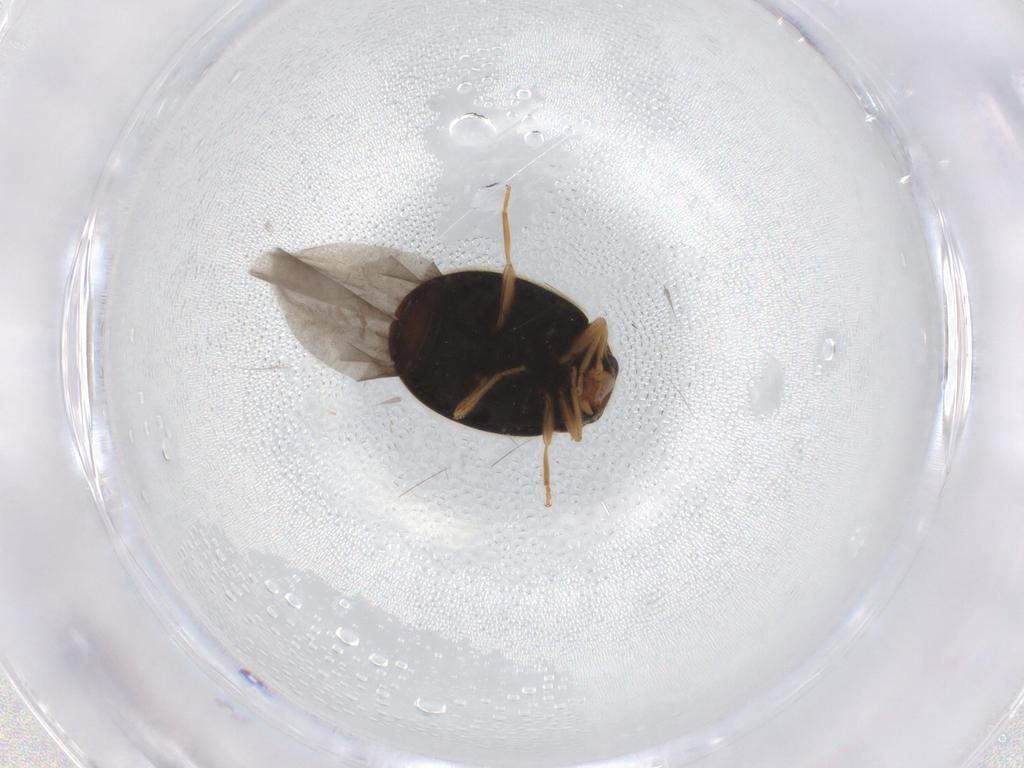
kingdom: Animalia
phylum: Arthropoda
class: Insecta
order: Coleoptera
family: Coccinellidae
